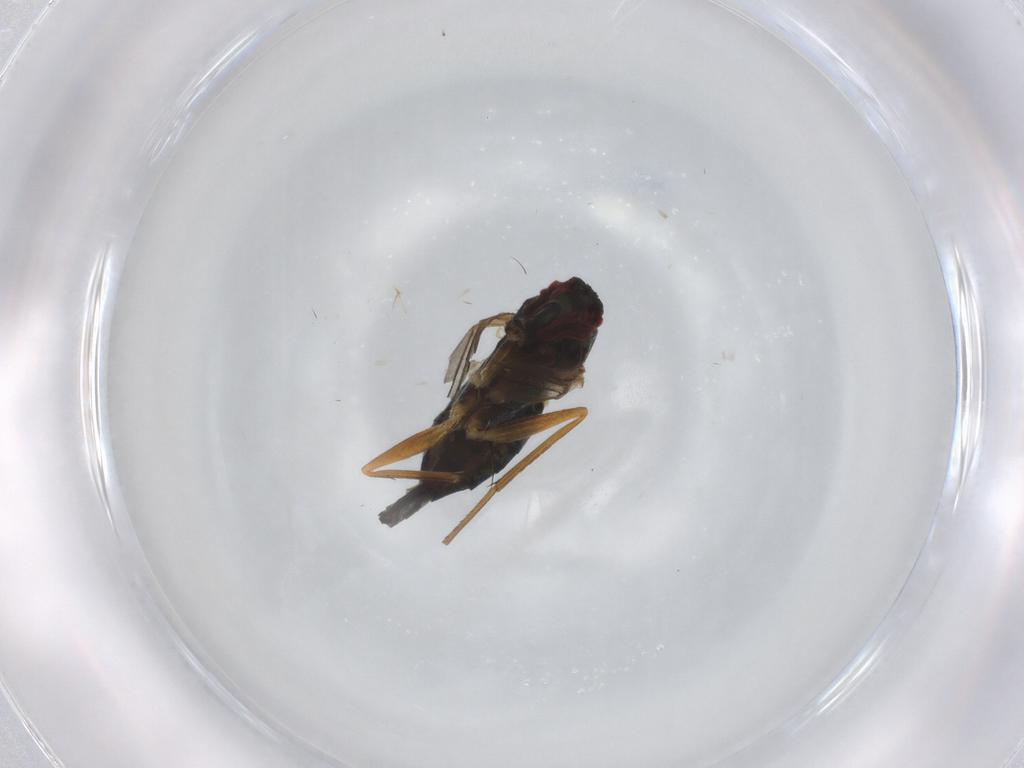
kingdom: Animalia
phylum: Arthropoda
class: Insecta
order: Diptera
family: Dolichopodidae
